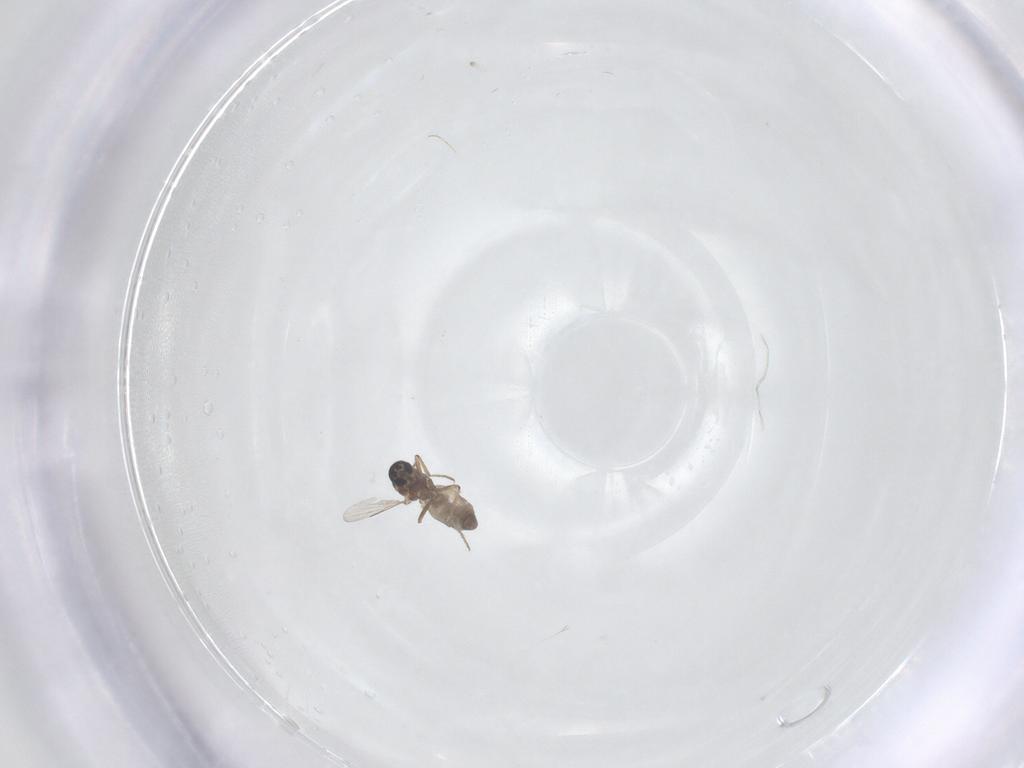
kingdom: Animalia
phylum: Arthropoda
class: Insecta
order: Diptera
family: Ceratopogonidae
